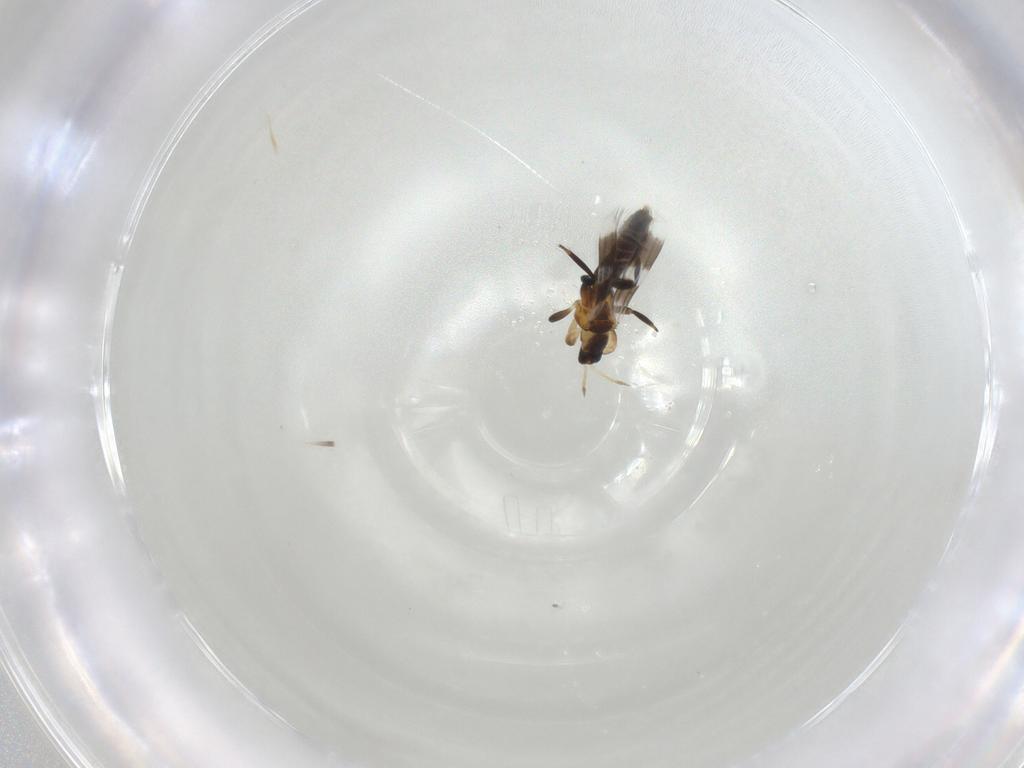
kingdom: Animalia
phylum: Arthropoda
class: Insecta
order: Thysanoptera
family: Aeolothripidae
